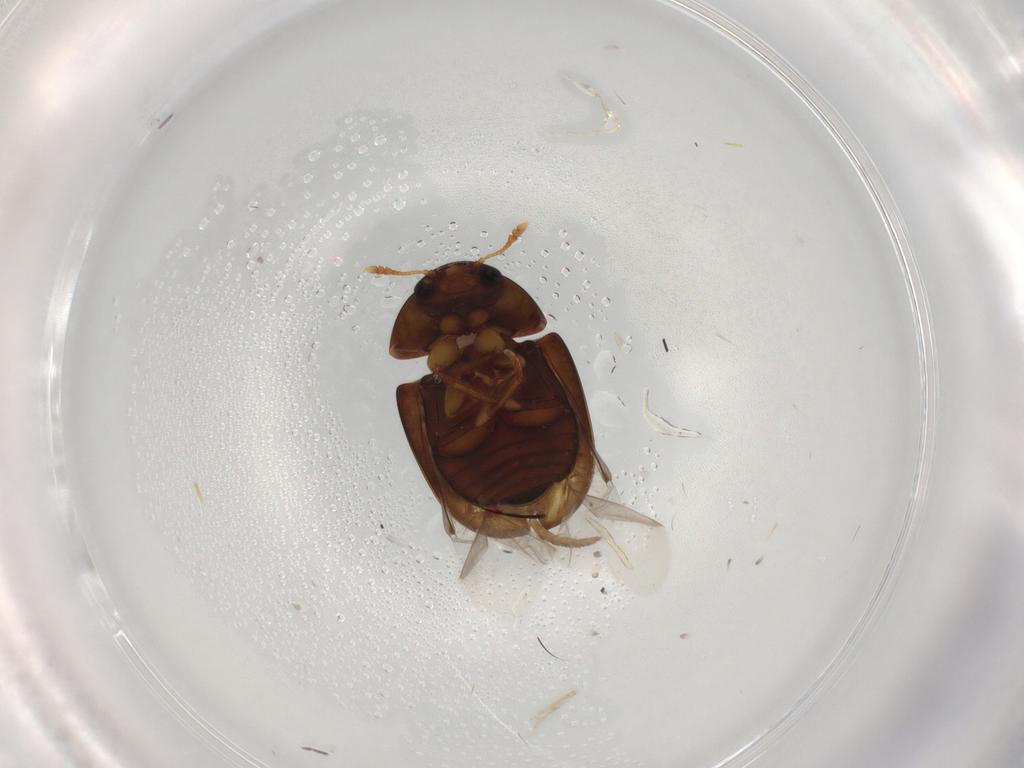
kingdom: Animalia
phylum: Arthropoda
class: Insecta
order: Coleoptera
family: Phalacridae
